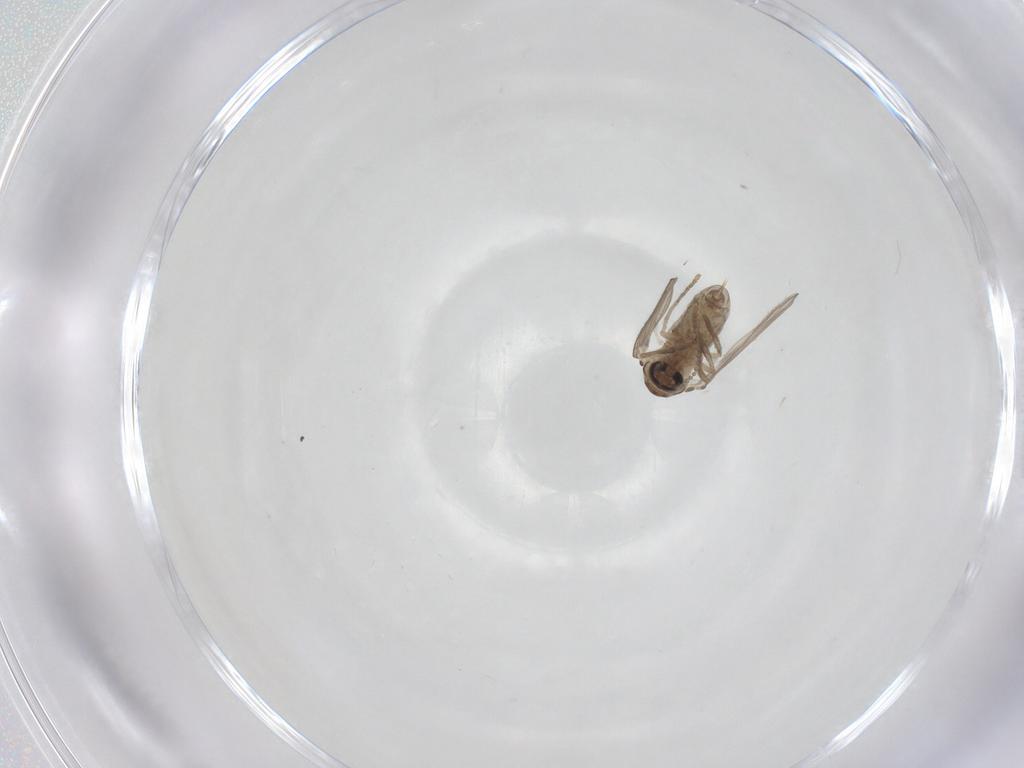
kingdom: Animalia
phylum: Arthropoda
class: Insecta
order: Diptera
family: Psychodidae
